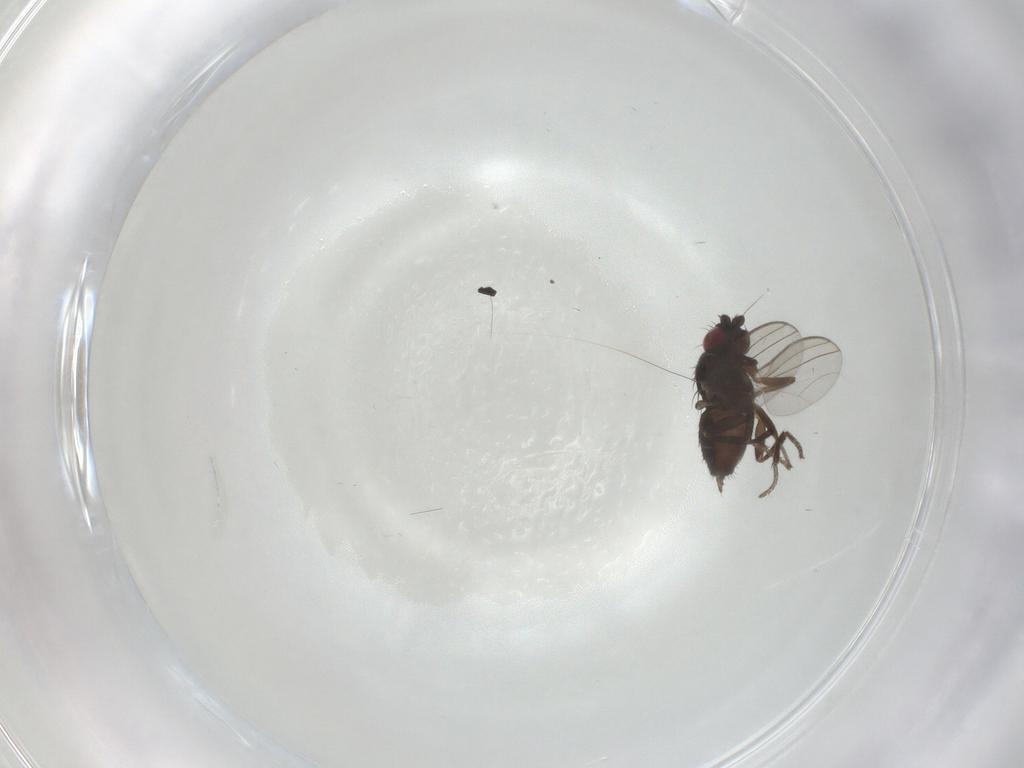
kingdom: Animalia
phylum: Arthropoda
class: Insecta
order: Diptera
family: Milichiidae
